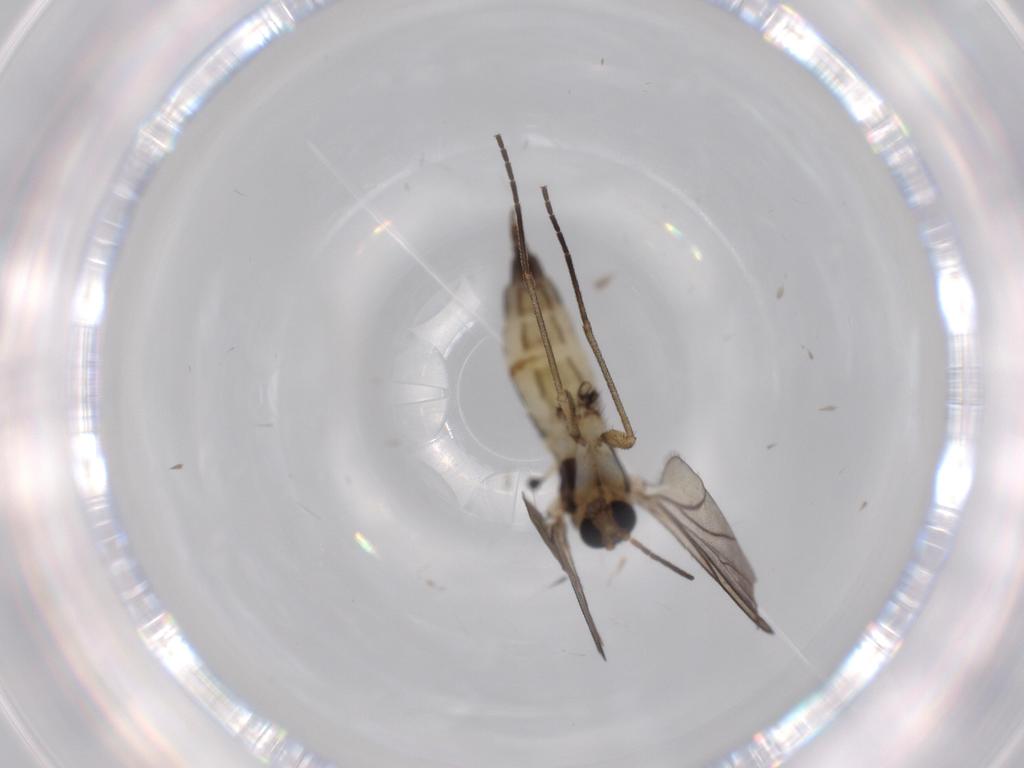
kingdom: Animalia
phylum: Arthropoda
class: Insecta
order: Diptera
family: Sciaridae
